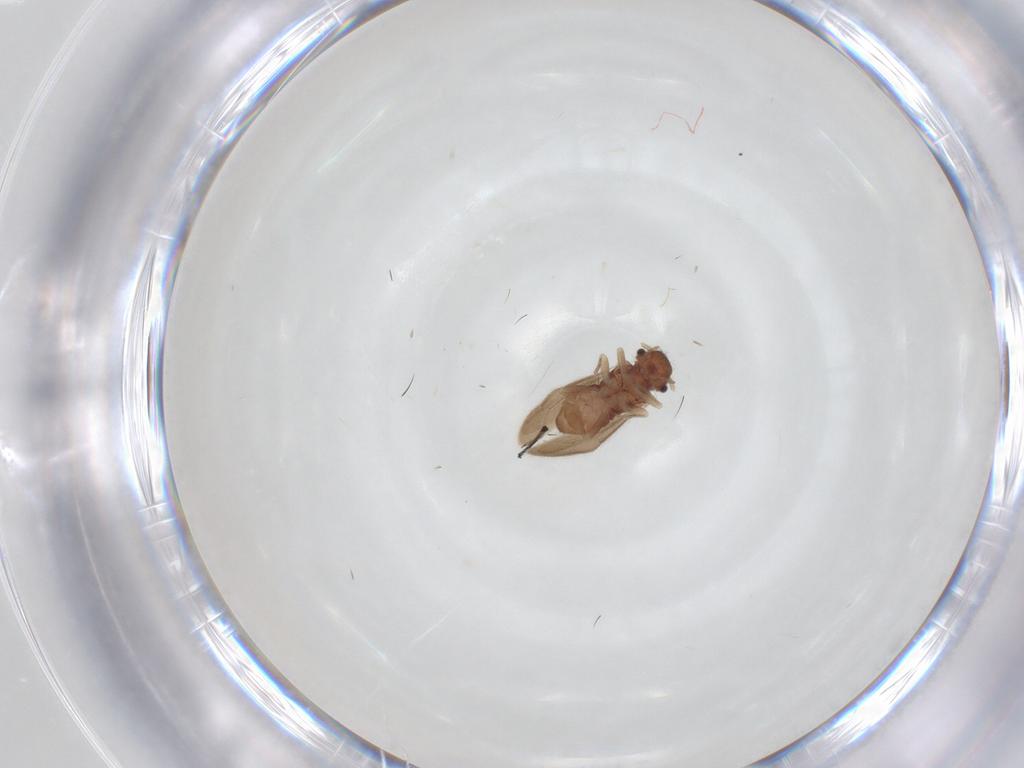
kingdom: Animalia
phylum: Arthropoda
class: Insecta
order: Psocodea
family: Archipsocidae
